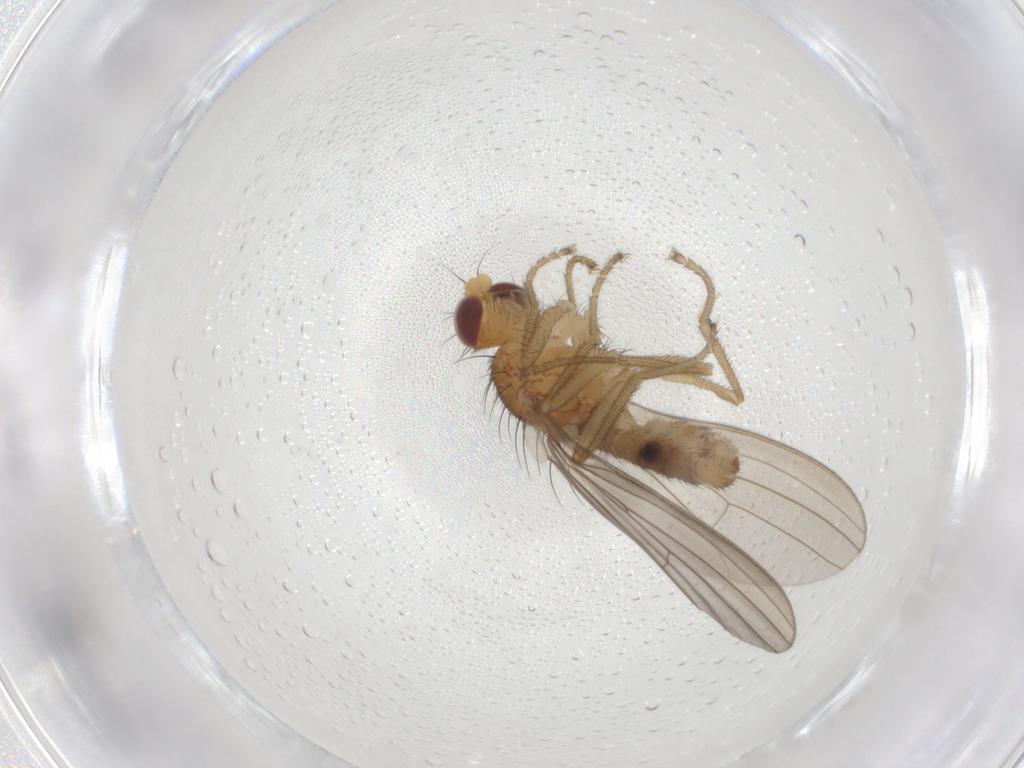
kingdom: Animalia
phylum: Arthropoda
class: Insecta
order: Diptera
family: Natalimyzidae
